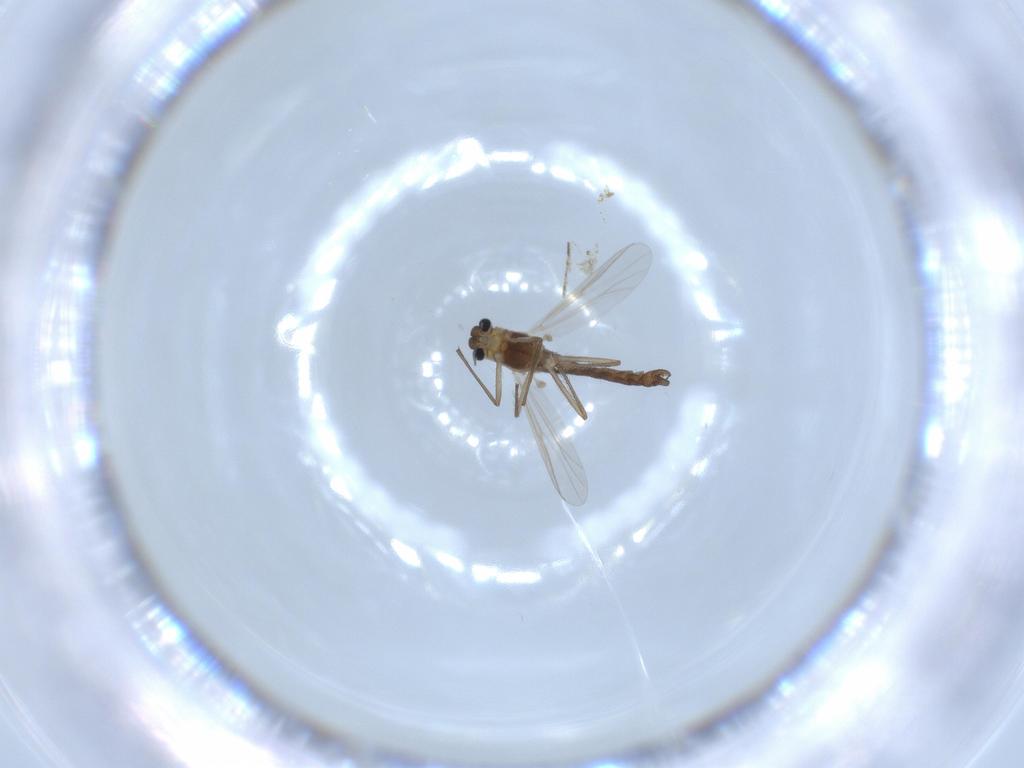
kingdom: Animalia
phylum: Arthropoda
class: Insecta
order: Diptera
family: Chironomidae
